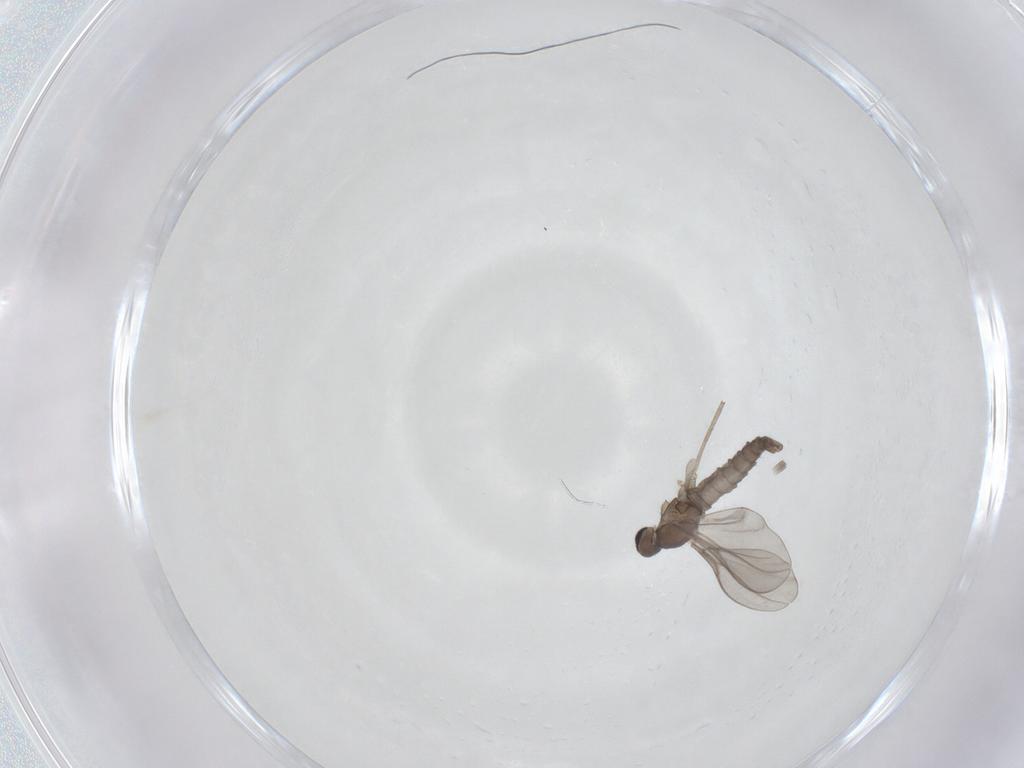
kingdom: Animalia
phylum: Arthropoda
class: Insecta
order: Diptera
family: Cecidomyiidae
